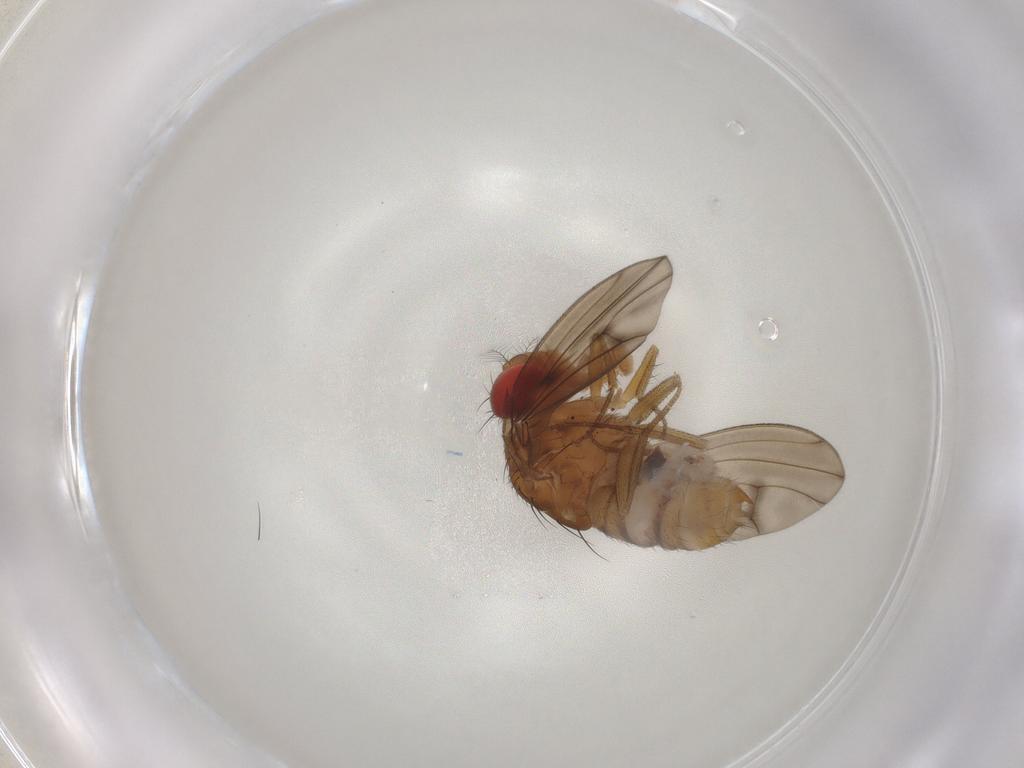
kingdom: Animalia
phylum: Arthropoda
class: Insecta
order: Diptera
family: Drosophilidae
